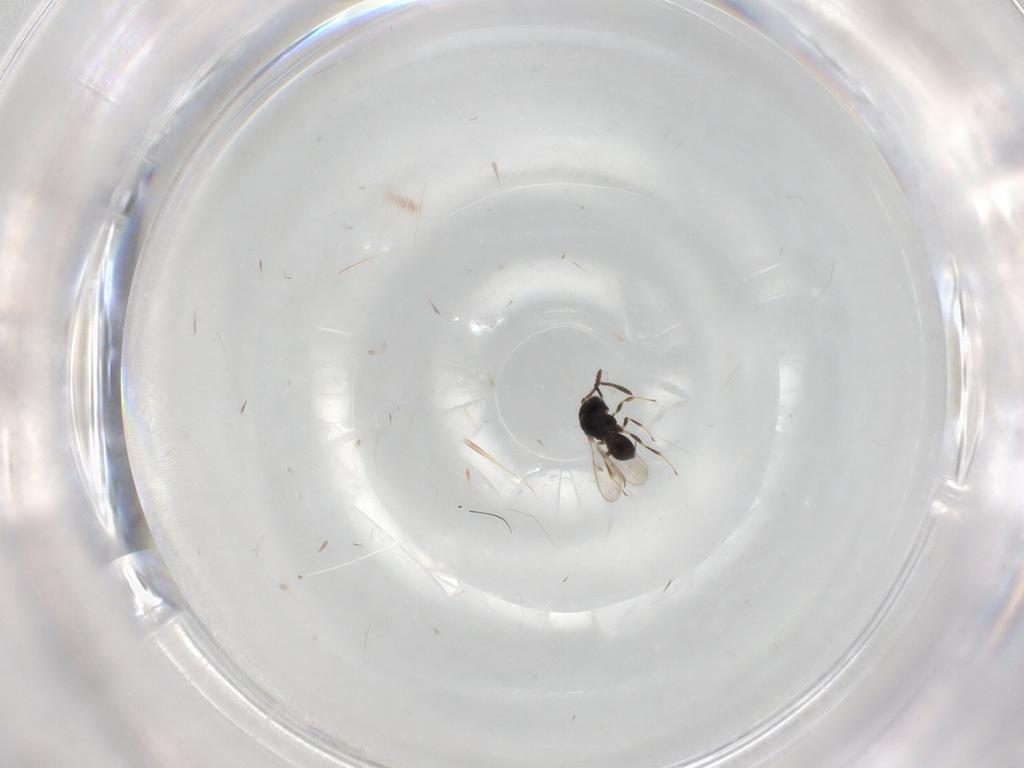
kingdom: Animalia
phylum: Arthropoda
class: Insecta
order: Hymenoptera
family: Scelionidae
